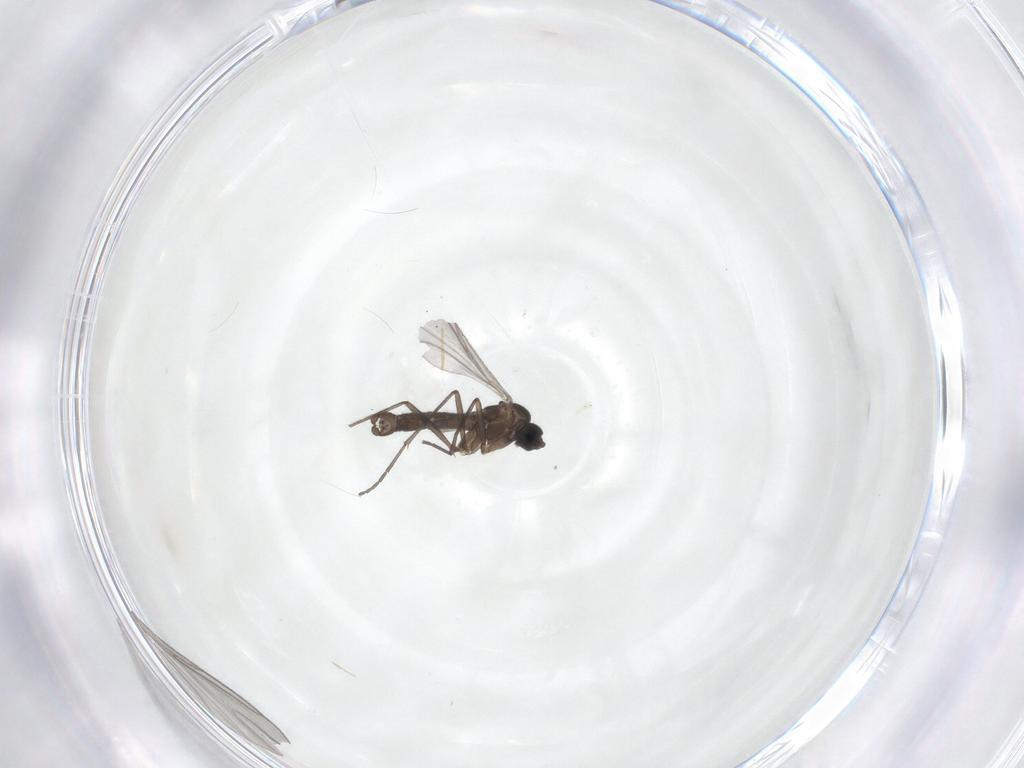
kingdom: Animalia
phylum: Arthropoda
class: Insecta
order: Diptera
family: Sciaridae
